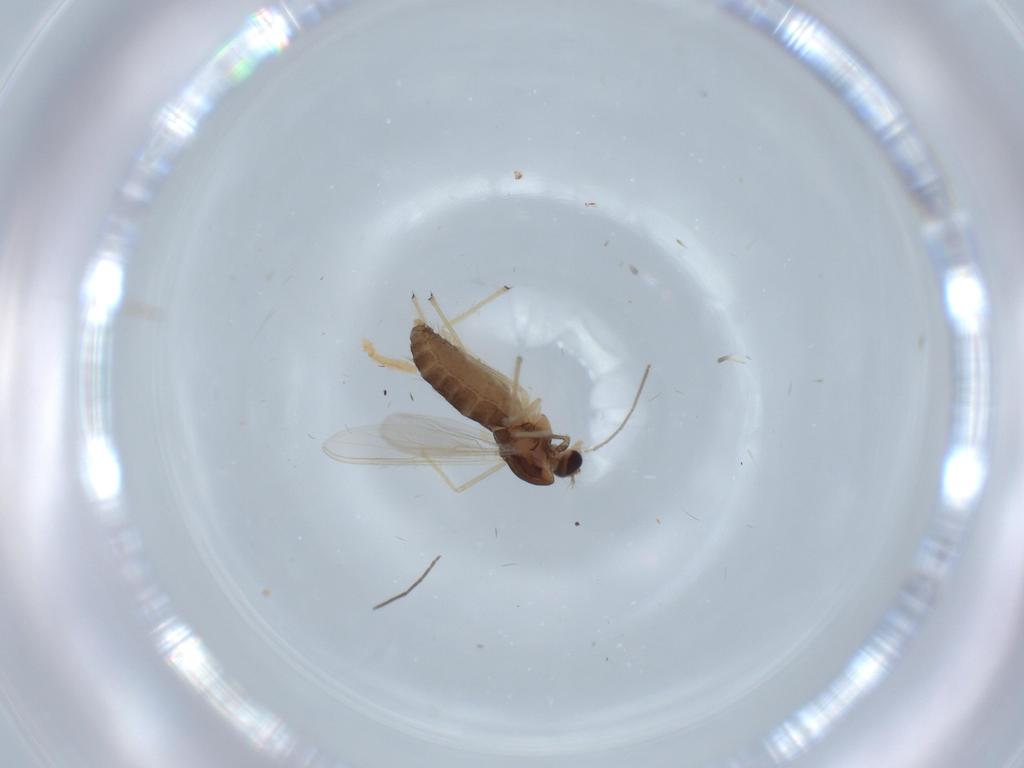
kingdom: Animalia
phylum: Arthropoda
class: Insecta
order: Diptera
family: Chironomidae
